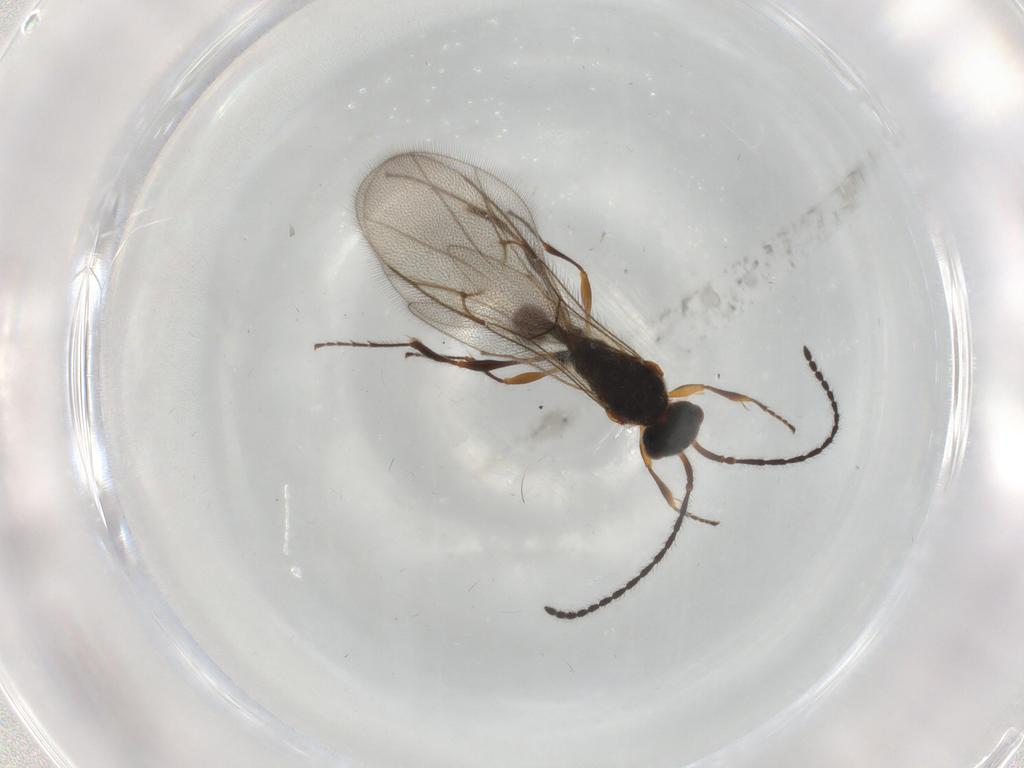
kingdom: Animalia
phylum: Arthropoda
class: Insecta
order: Hymenoptera
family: Diapriidae
